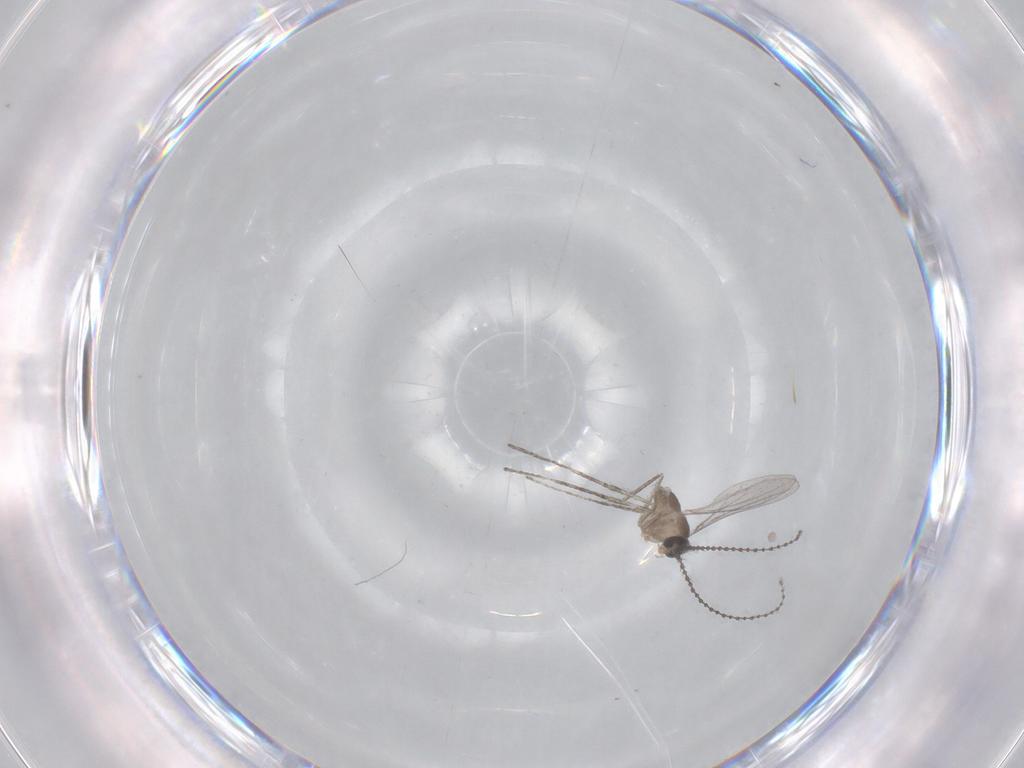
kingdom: Animalia
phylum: Arthropoda
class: Insecta
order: Diptera
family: Cecidomyiidae
